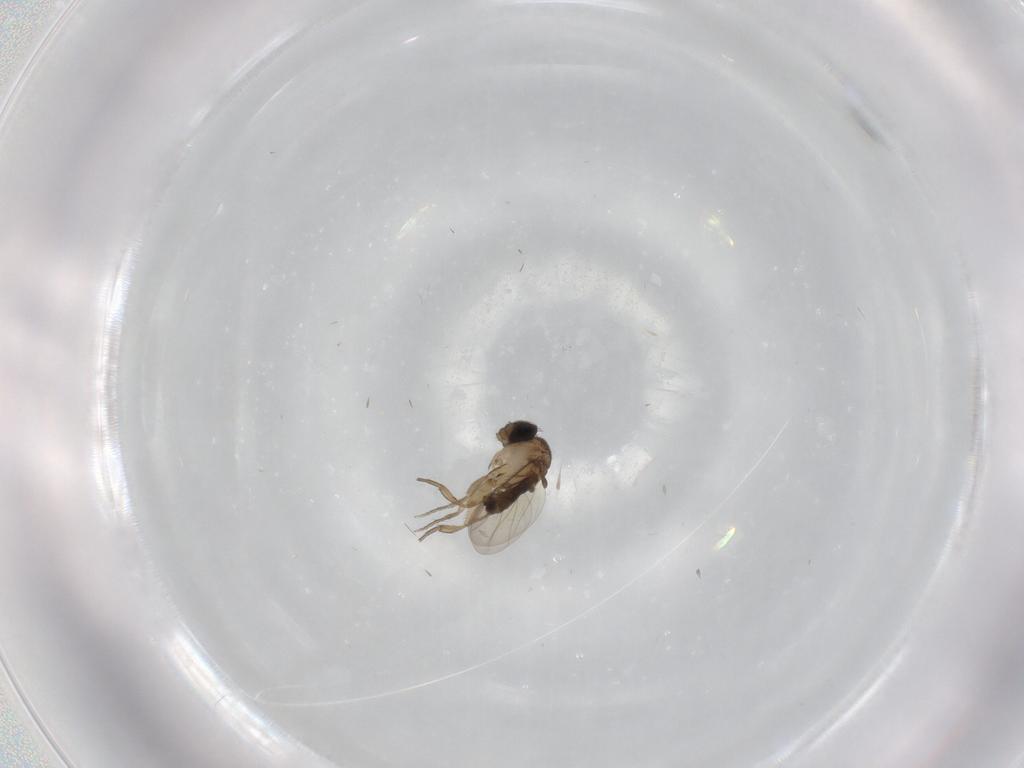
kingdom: Animalia
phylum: Arthropoda
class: Insecta
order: Diptera
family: Phoridae
